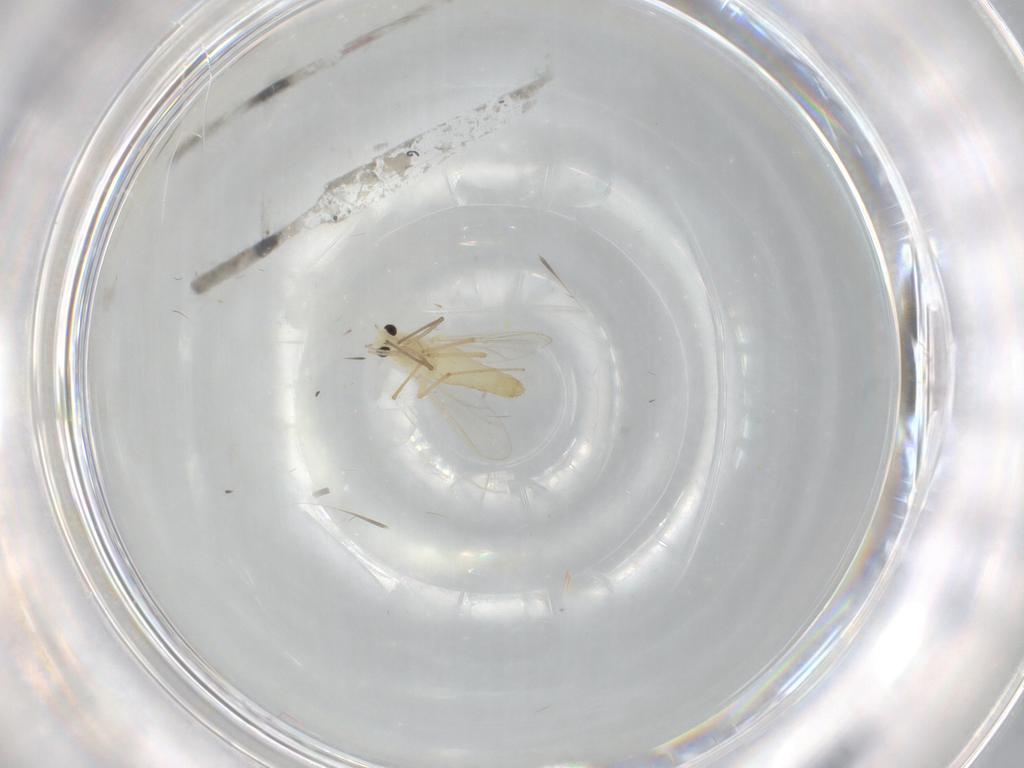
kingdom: Animalia
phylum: Arthropoda
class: Insecta
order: Diptera
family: Chironomidae
